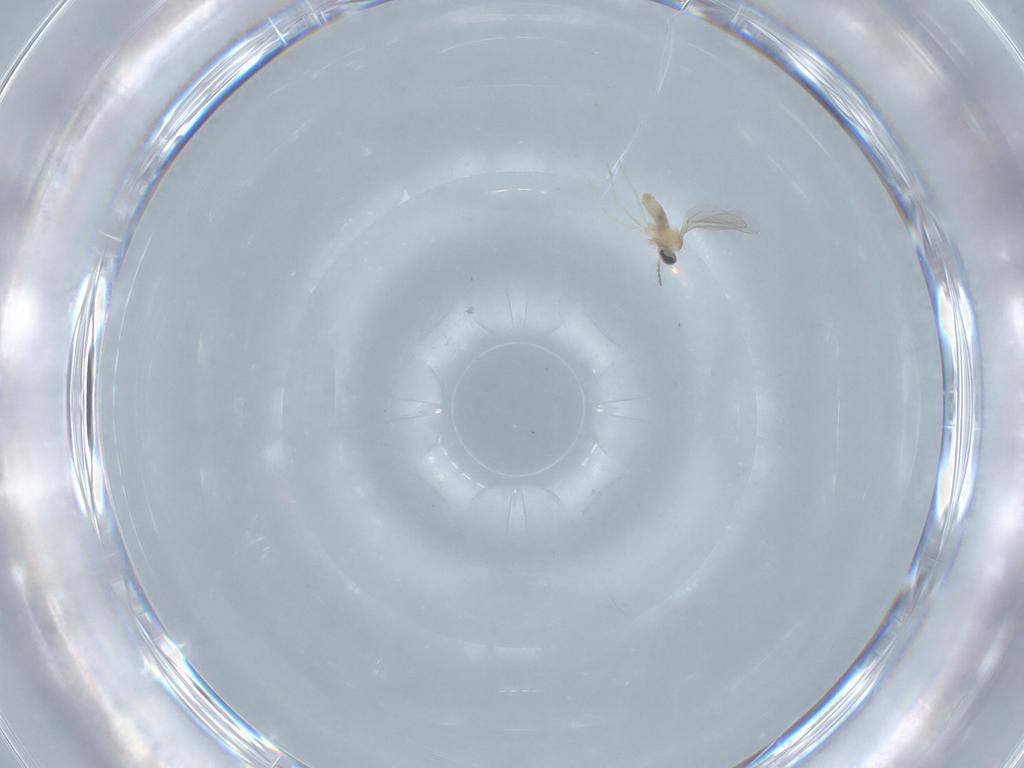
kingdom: Animalia
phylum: Arthropoda
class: Insecta
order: Diptera
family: Cecidomyiidae
